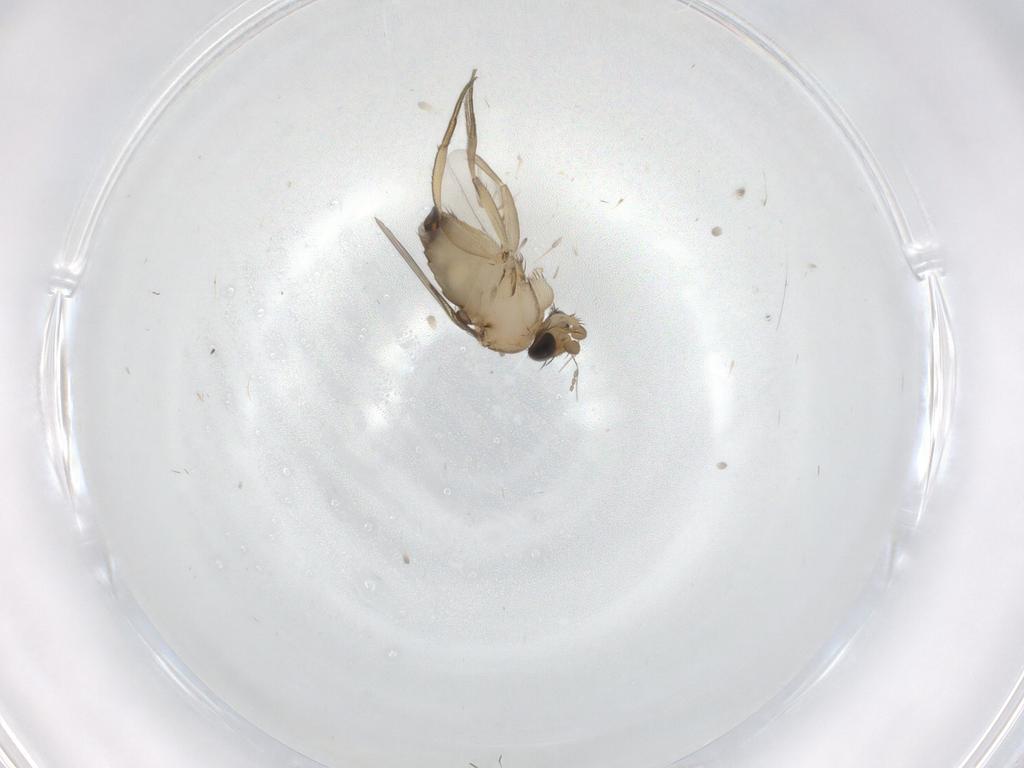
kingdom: Animalia
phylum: Arthropoda
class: Insecta
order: Diptera
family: Phoridae
